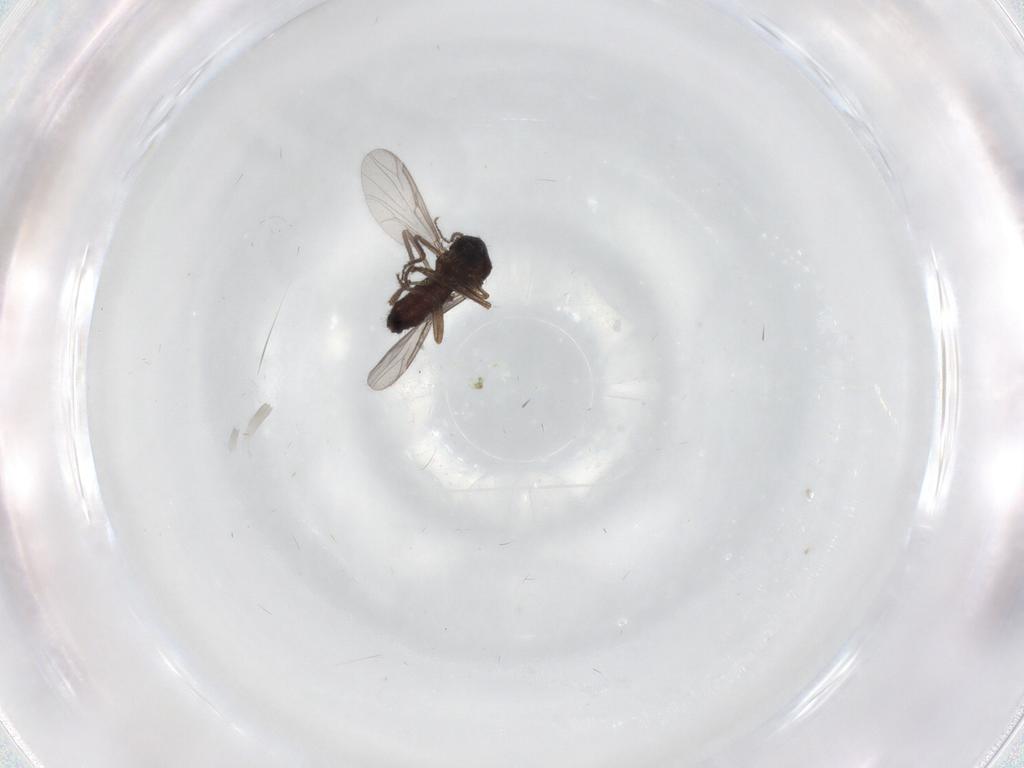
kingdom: Animalia
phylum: Arthropoda
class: Insecta
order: Diptera
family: Ceratopogonidae
